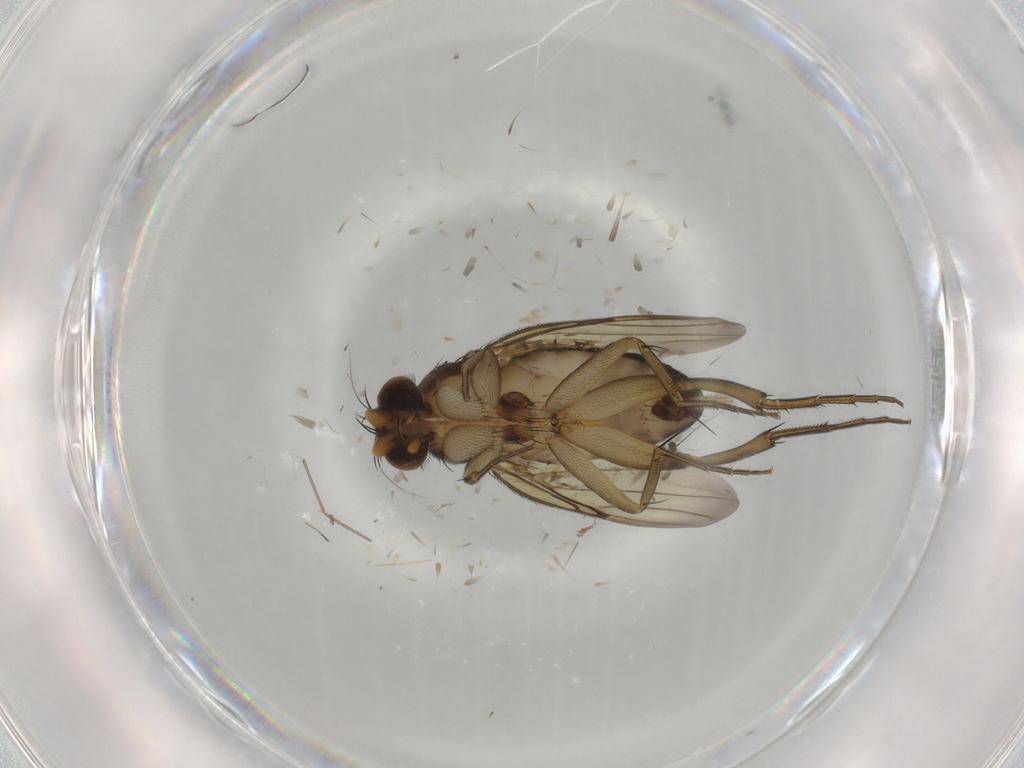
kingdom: Animalia
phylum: Arthropoda
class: Insecta
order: Diptera
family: Phoridae
